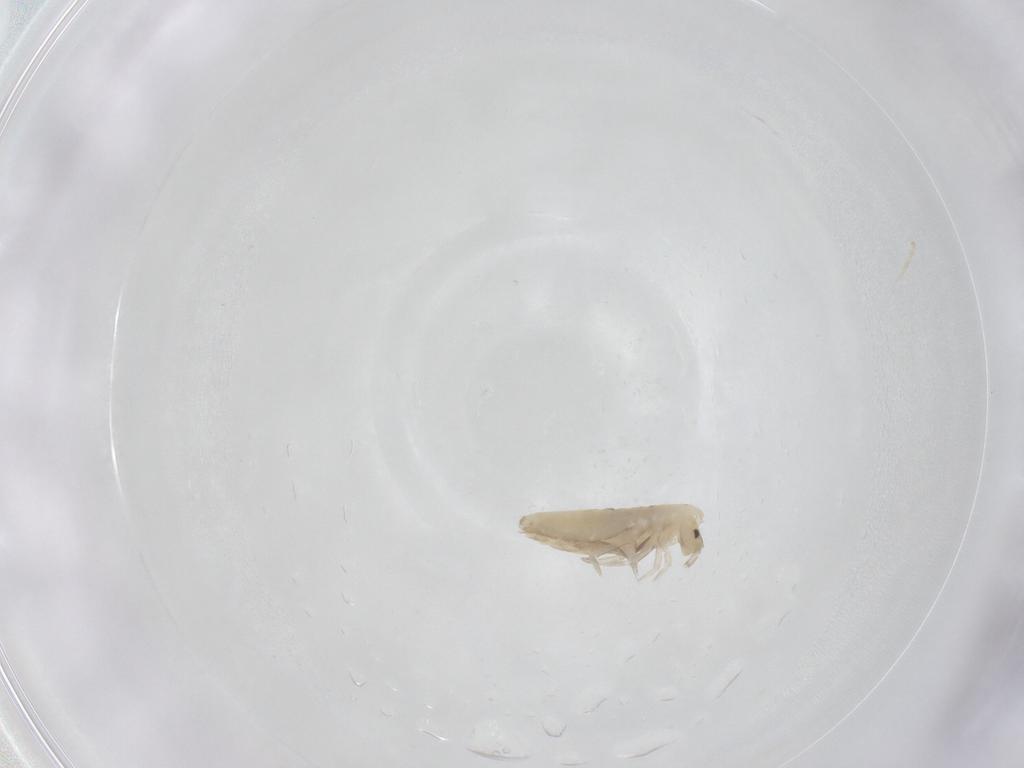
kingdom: Animalia
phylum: Arthropoda
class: Collembola
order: Entomobryomorpha
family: Entomobryidae
